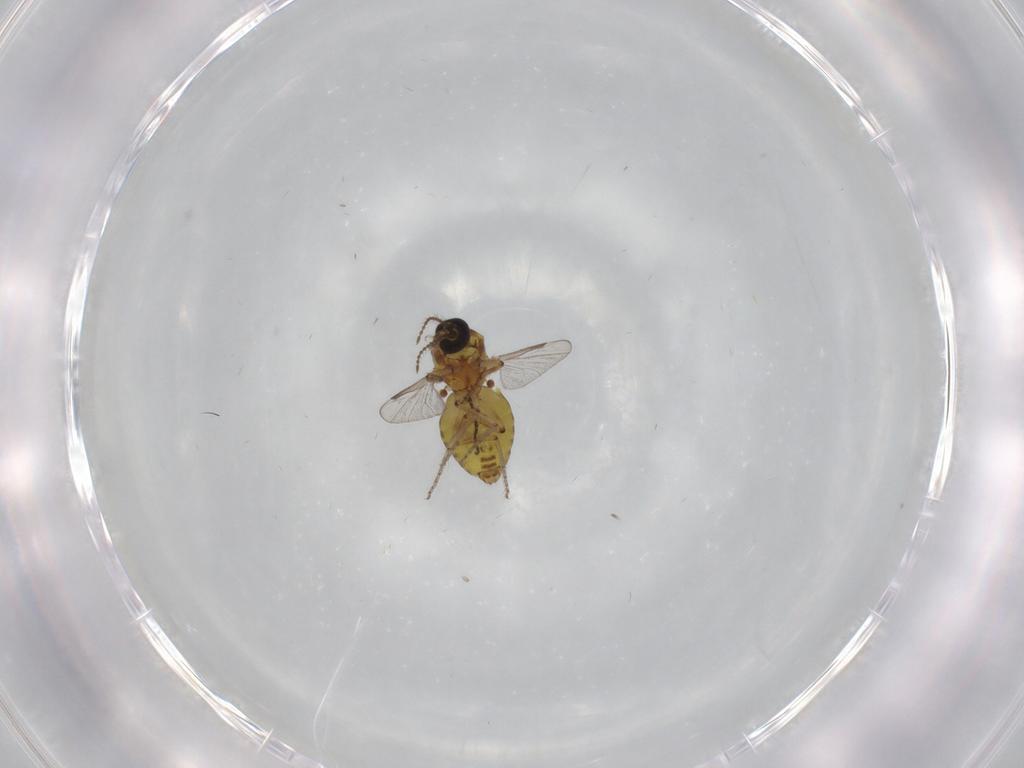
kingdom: Animalia
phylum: Arthropoda
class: Insecta
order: Diptera
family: Ceratopogonidae
